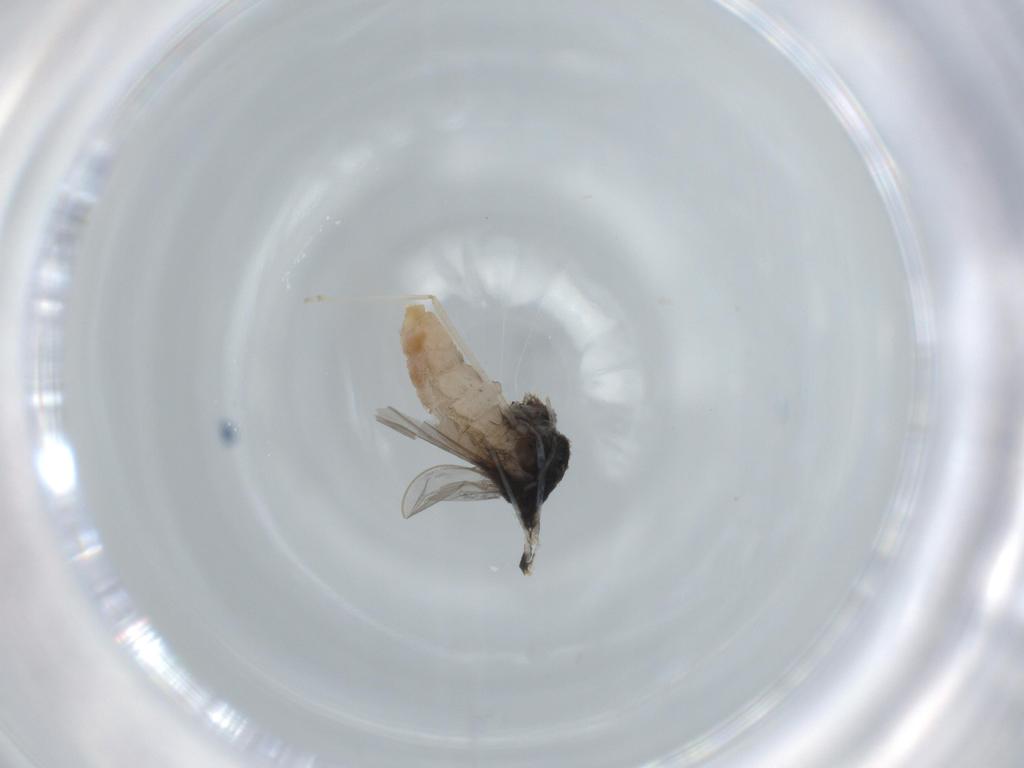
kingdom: Animalia
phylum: Arthropoda
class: Insecta
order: Diptera
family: Cecidomyiidae
